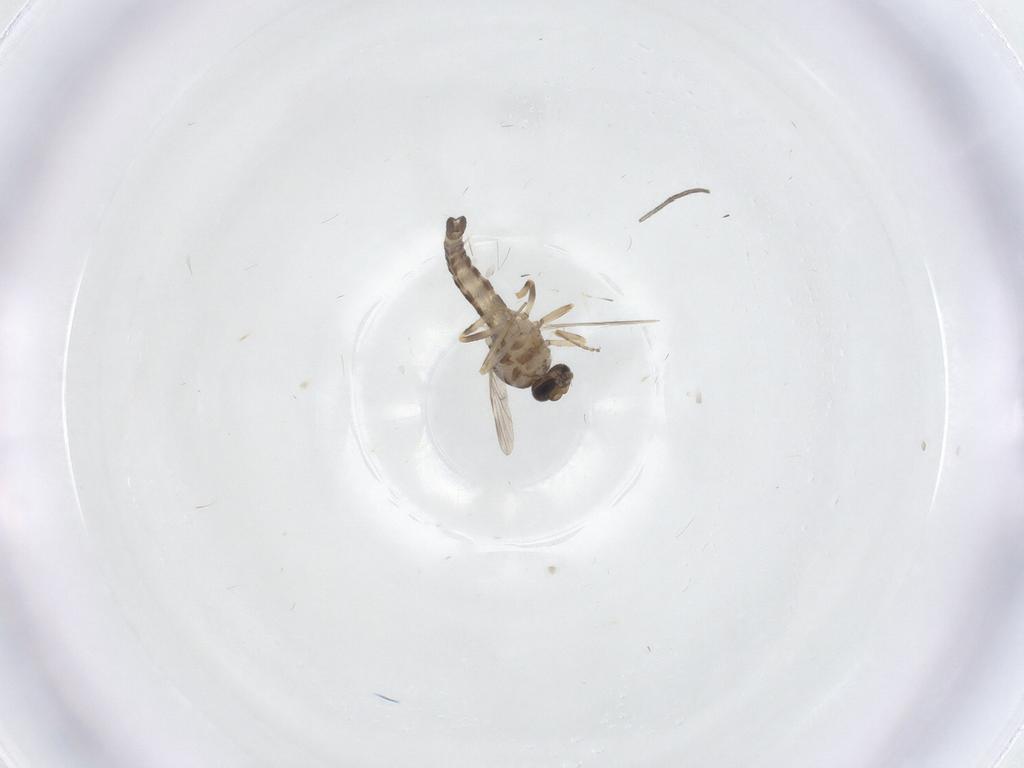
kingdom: Animalia
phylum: Arthropoda
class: Insecta
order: Diptera
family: Ceratopogonidae
